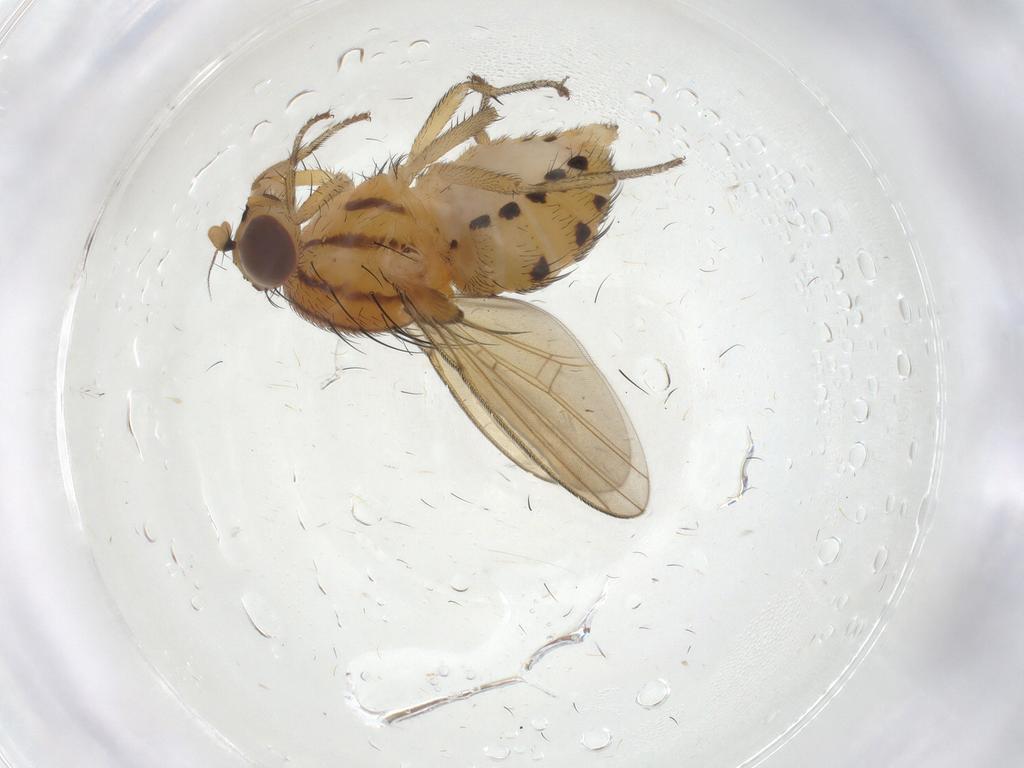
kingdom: Animalia
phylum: Arthropoda
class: Insecta
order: Diptera
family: Cecidomyiidae
